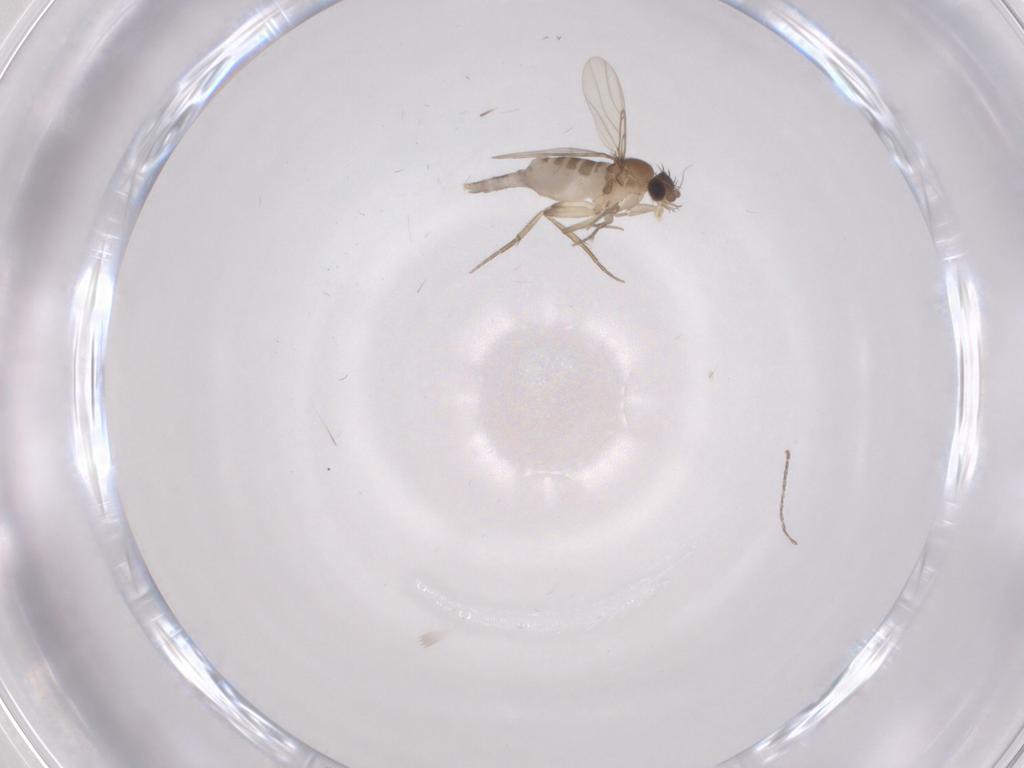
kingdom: Animalia
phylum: Arthropoda
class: Insecta
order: Diptera
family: Phoridae
